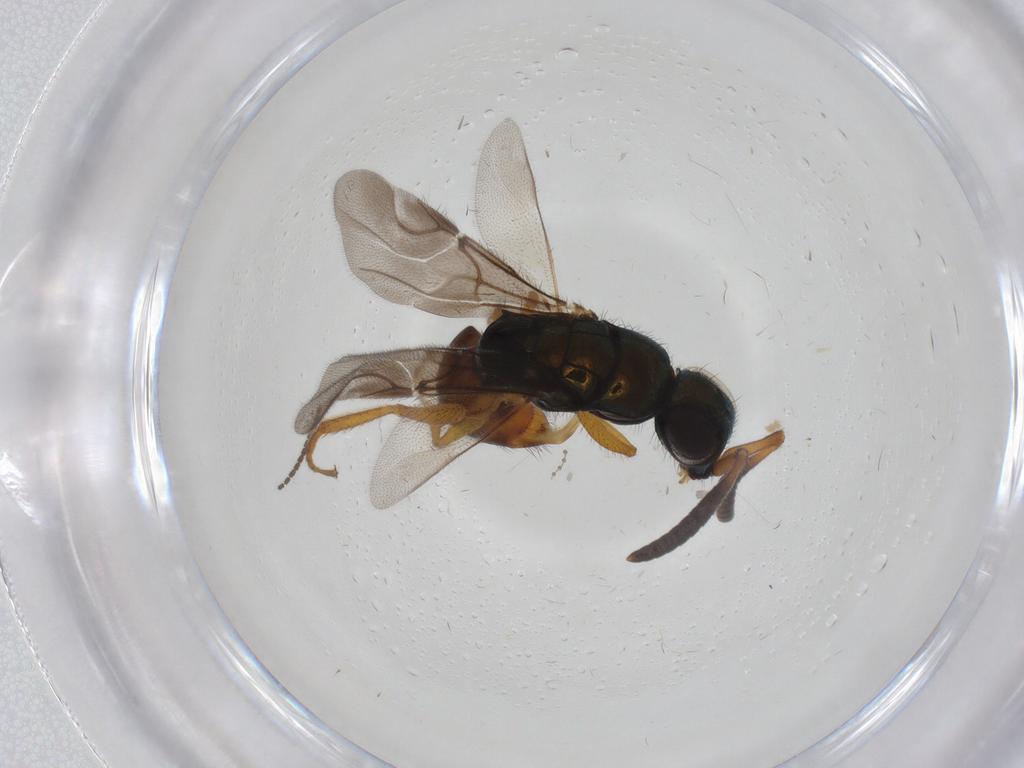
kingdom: Animalia
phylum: Arthropoda
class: Insecta
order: Hymenoptera
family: Chrysididae
